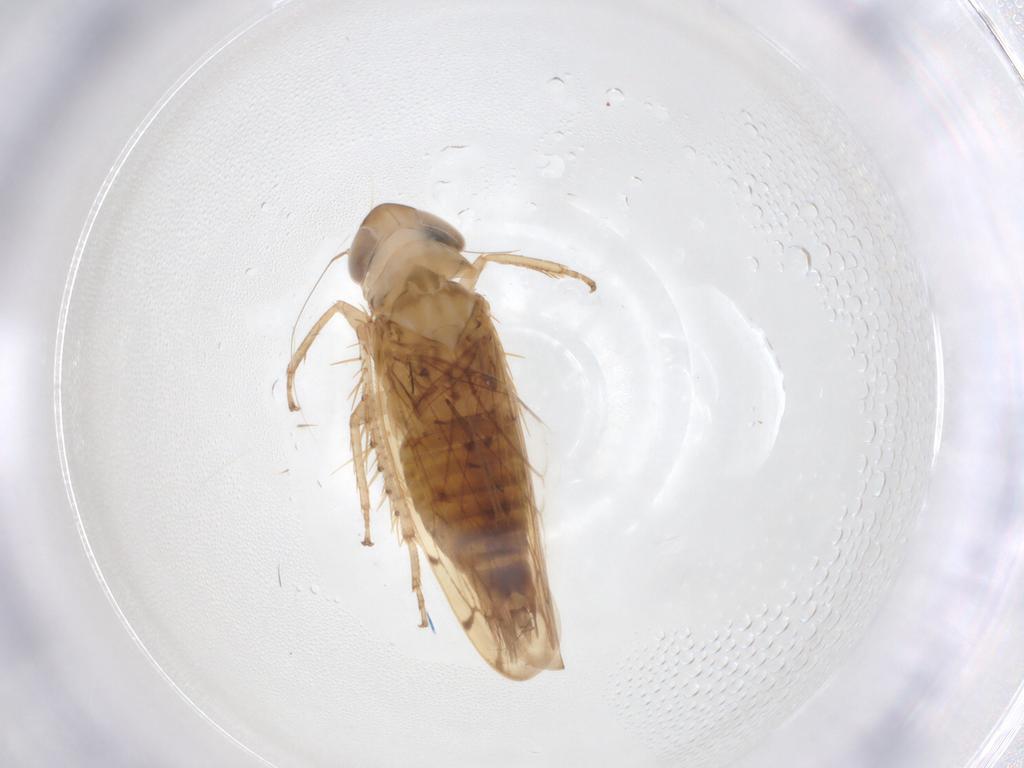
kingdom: Animalia
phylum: Arthropoda
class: Insecta
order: Hemiptera
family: Cicadellidae
